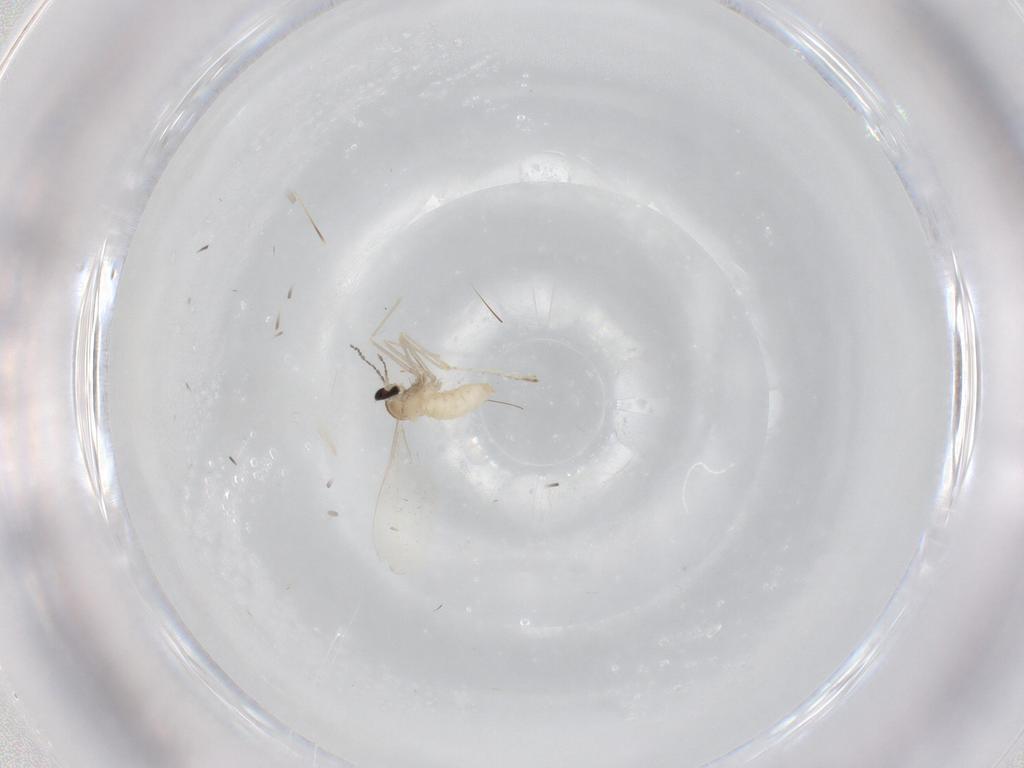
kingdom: Animalia
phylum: Arthropoda
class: Insecta
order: Diptera
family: Cecidomyiidae
